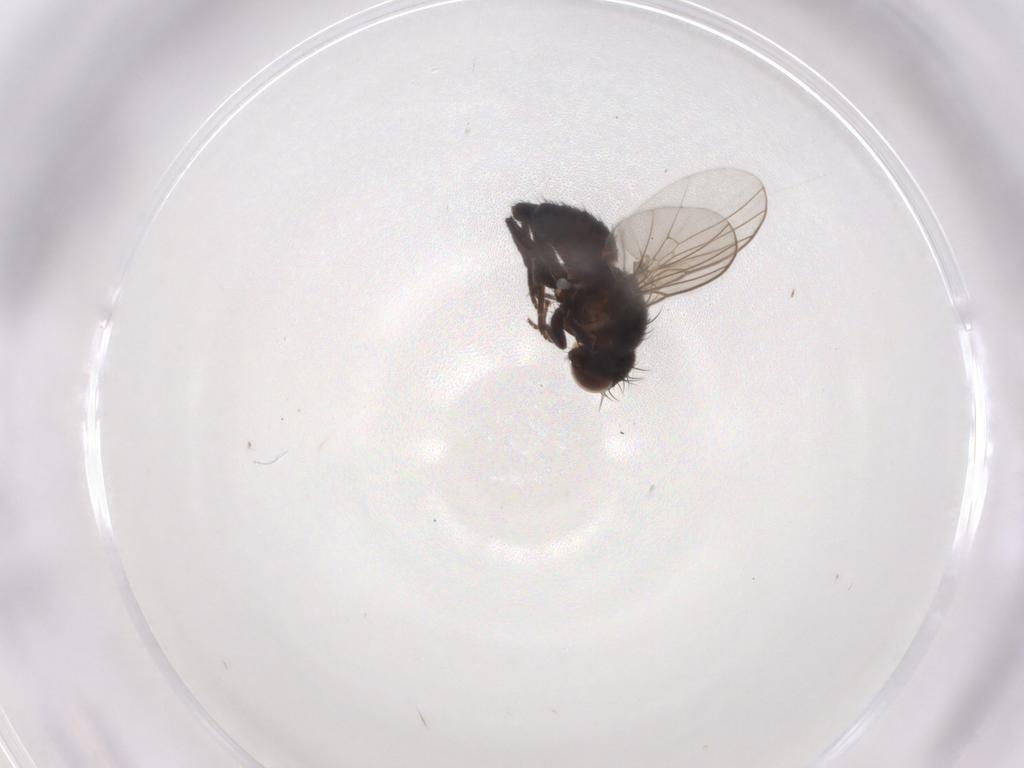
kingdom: Animalia
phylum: Arthropoda
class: Insecta
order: Diptera
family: Agromyzidae
